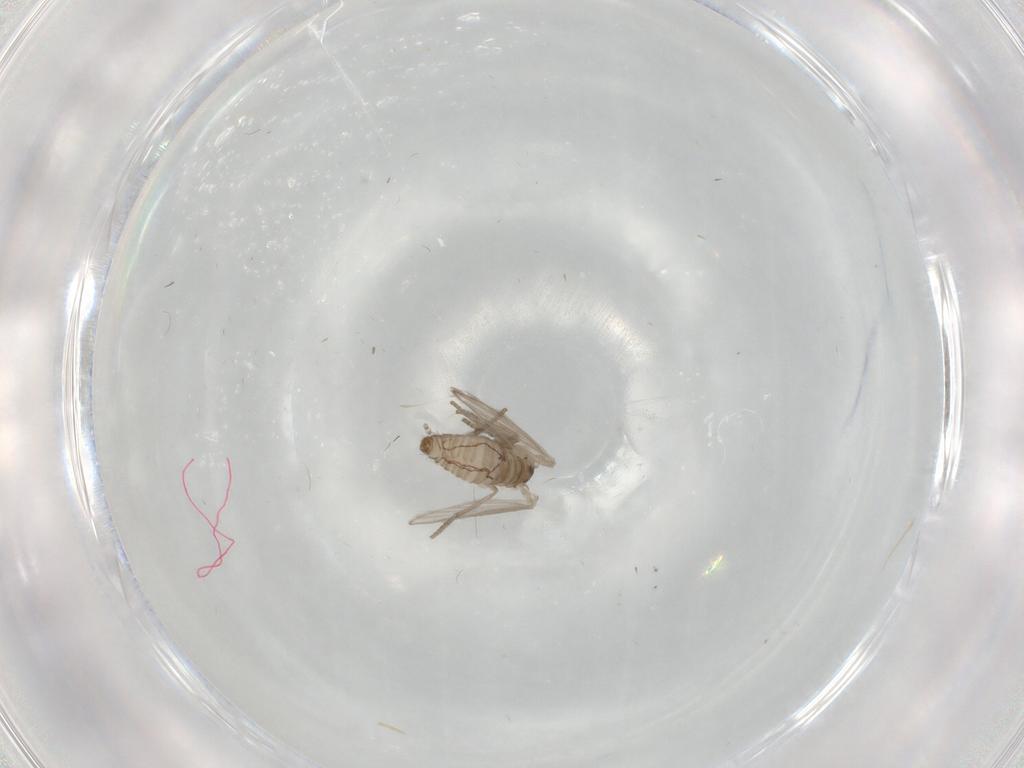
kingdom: Animalia
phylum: Arthropoda
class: Insecta
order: Diptera
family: Psychodidae
